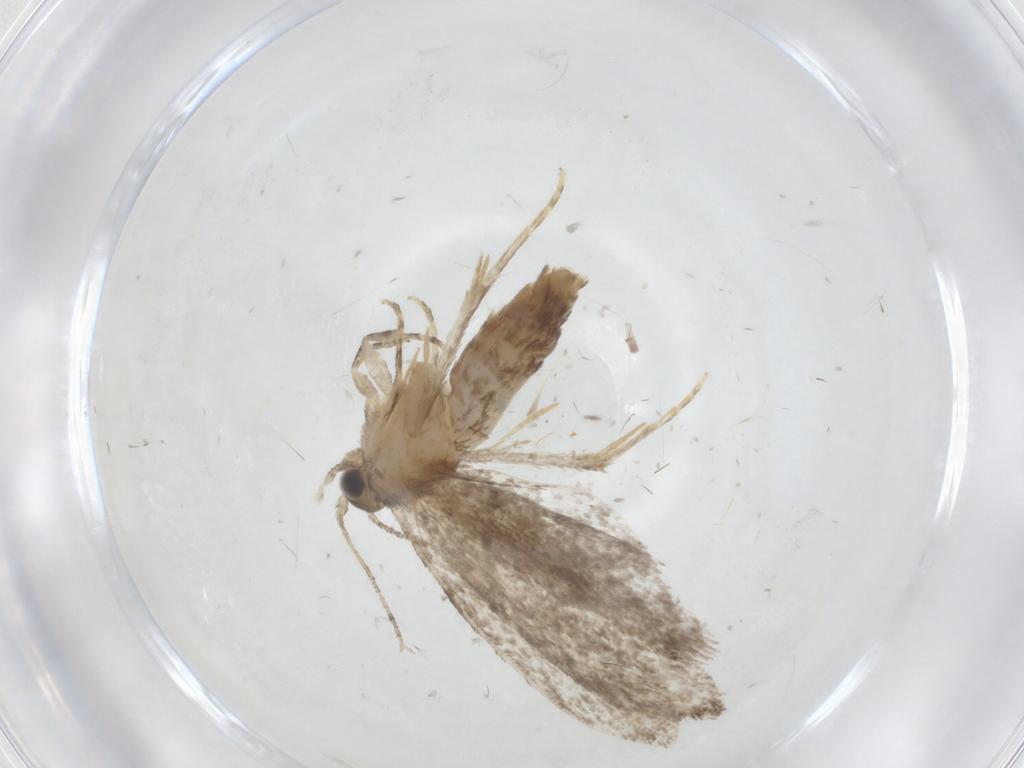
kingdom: Animalia
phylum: Arthropoda
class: Insecta
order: Lepidoptera
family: Tineidae
